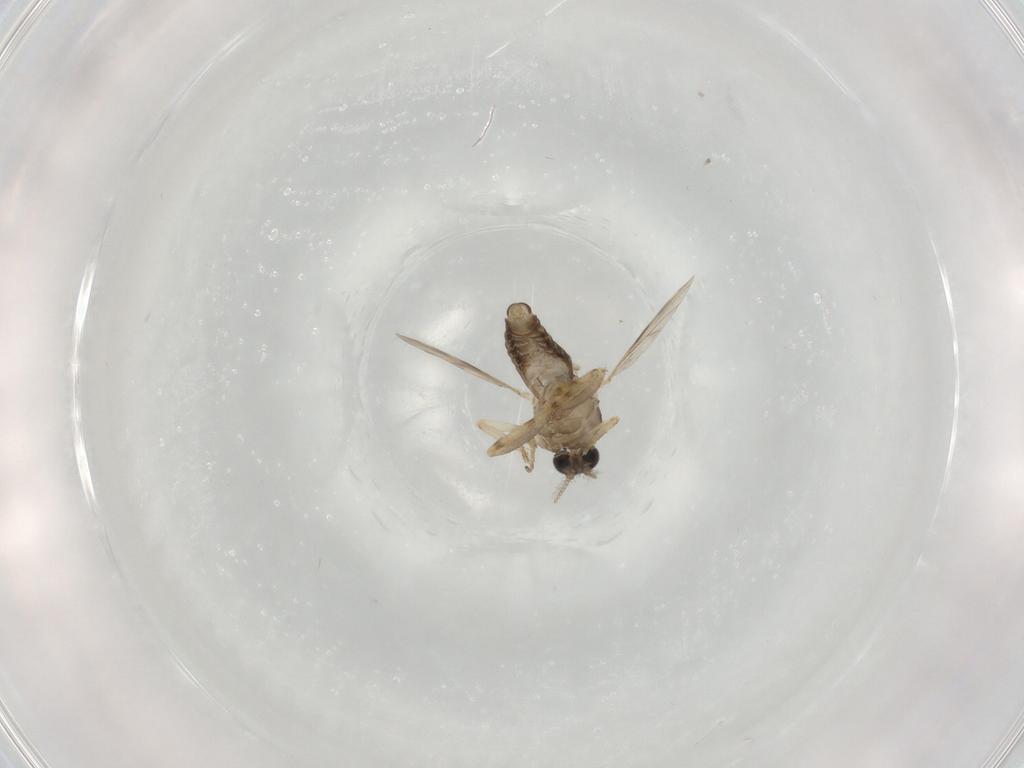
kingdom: Animalia
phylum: Arthropoda
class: Insecta
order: Diptera
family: Ceratopogonidae
